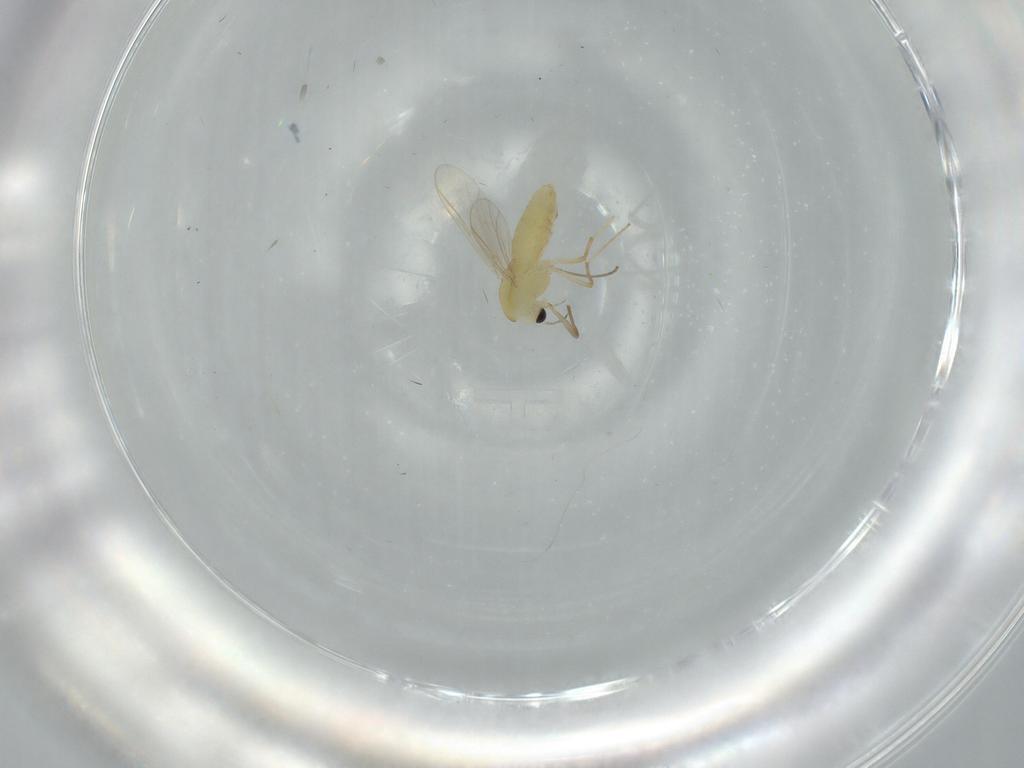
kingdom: Animalia
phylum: Arthropoda
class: Insecta
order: Diptera
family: Chironomidae
